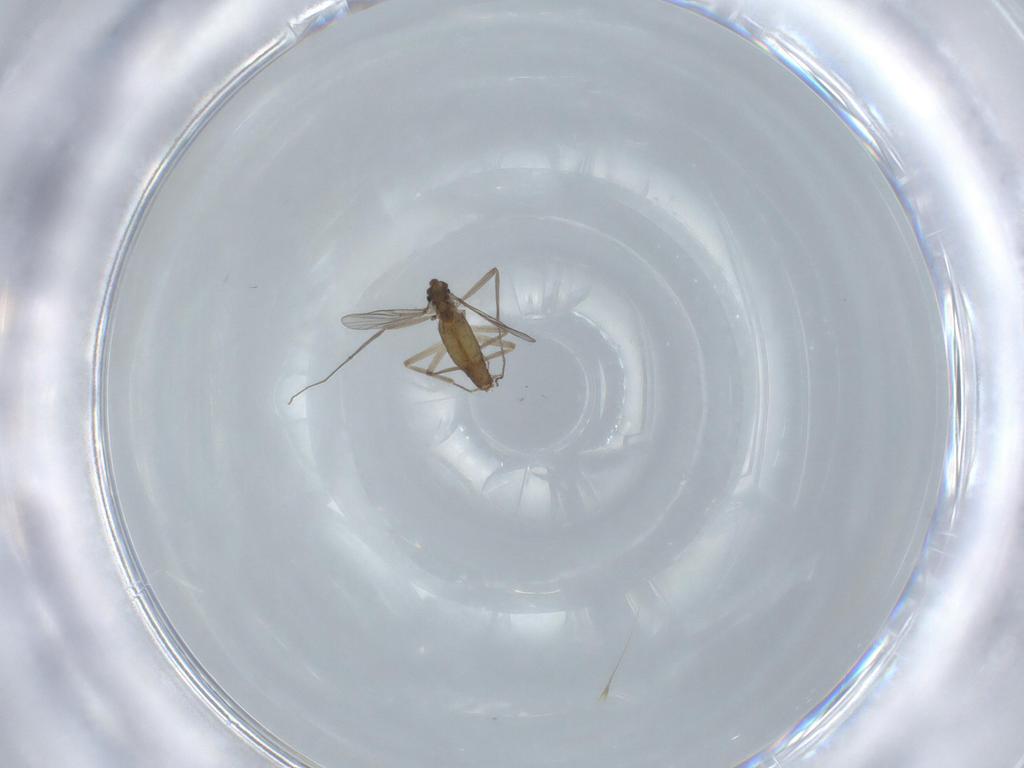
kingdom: Animalia
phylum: Arthropoda
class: Insecta
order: Diptera
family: Chironomidae
